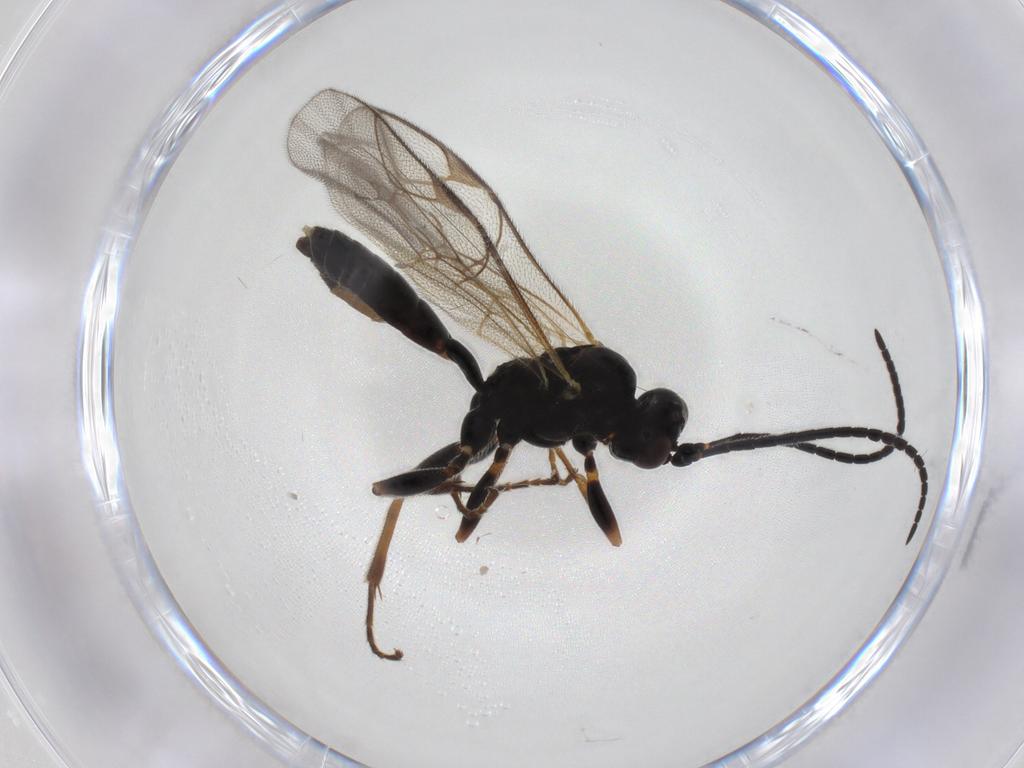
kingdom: Animalia
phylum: Arthropoda
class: Insecta
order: Hymenoptera
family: Ichneumonidae
